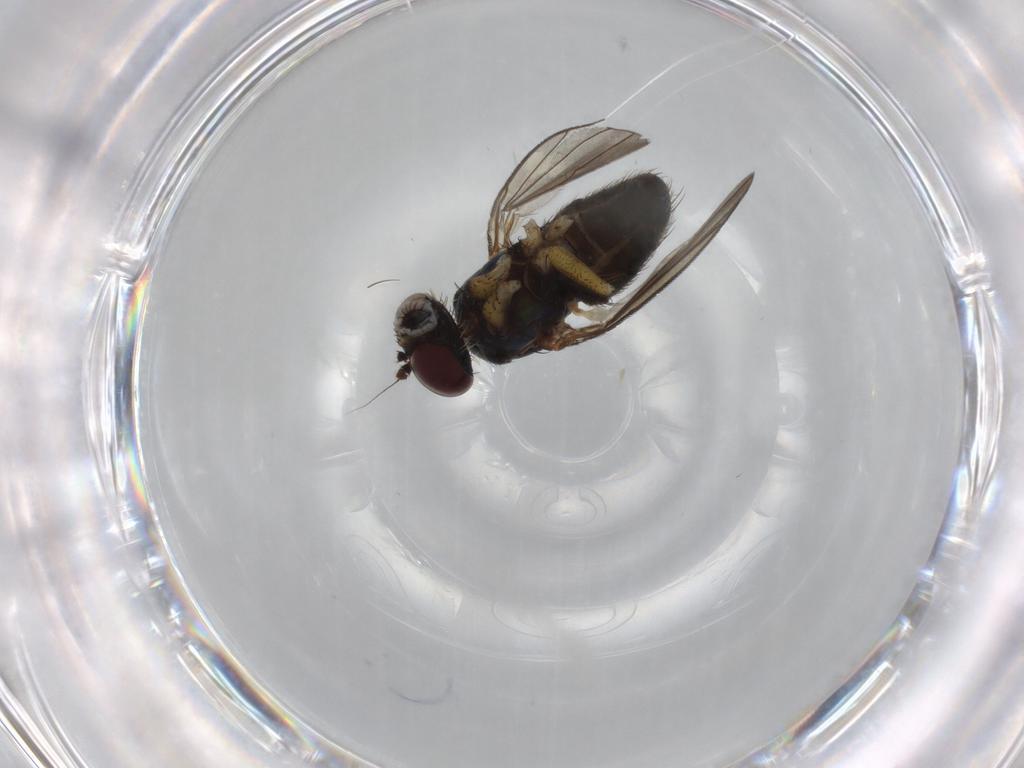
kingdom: Animalia
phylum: Arthropoda
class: Insecta
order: Diptera
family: Dolichopodidae
